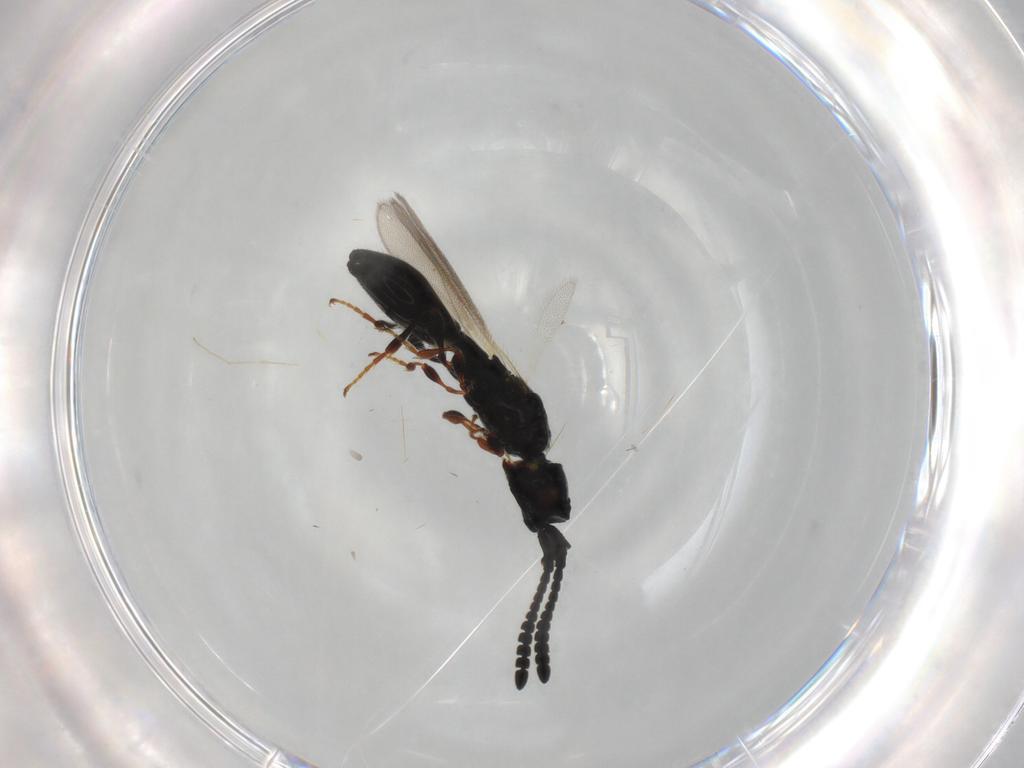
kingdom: Animalia
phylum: Arthropoda
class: Insecta
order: Hymenoptera
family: Diapriidae
